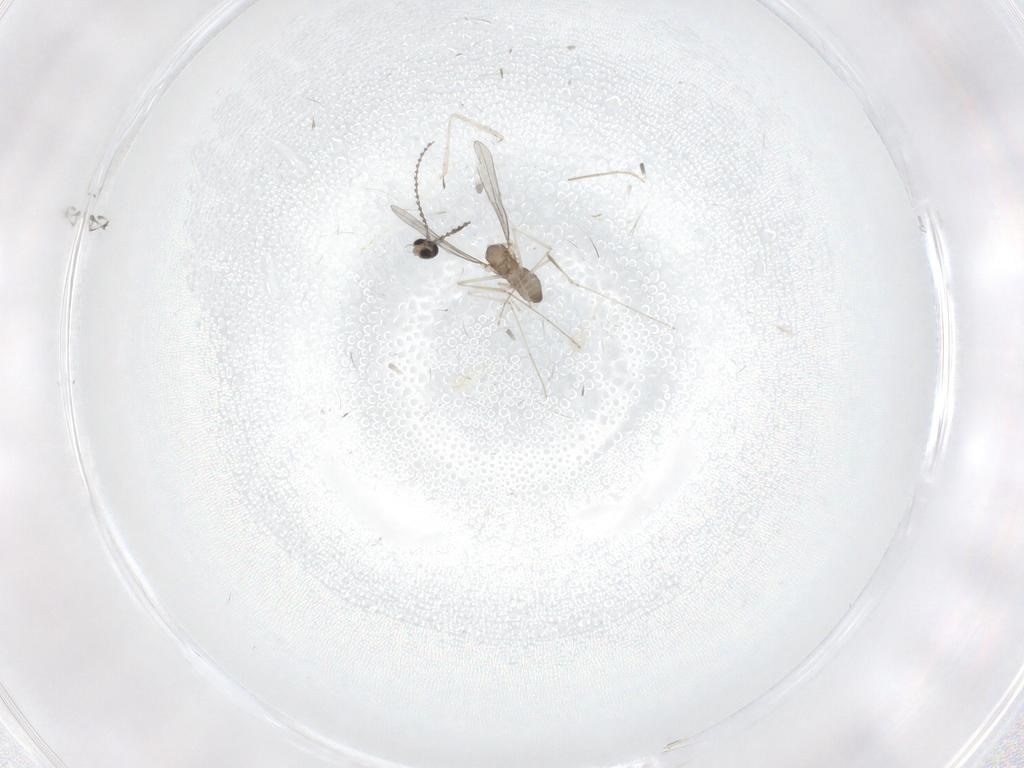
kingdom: Animalia
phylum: Arthropoda
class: Insecta
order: Diptera
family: Cecidomyiidae
